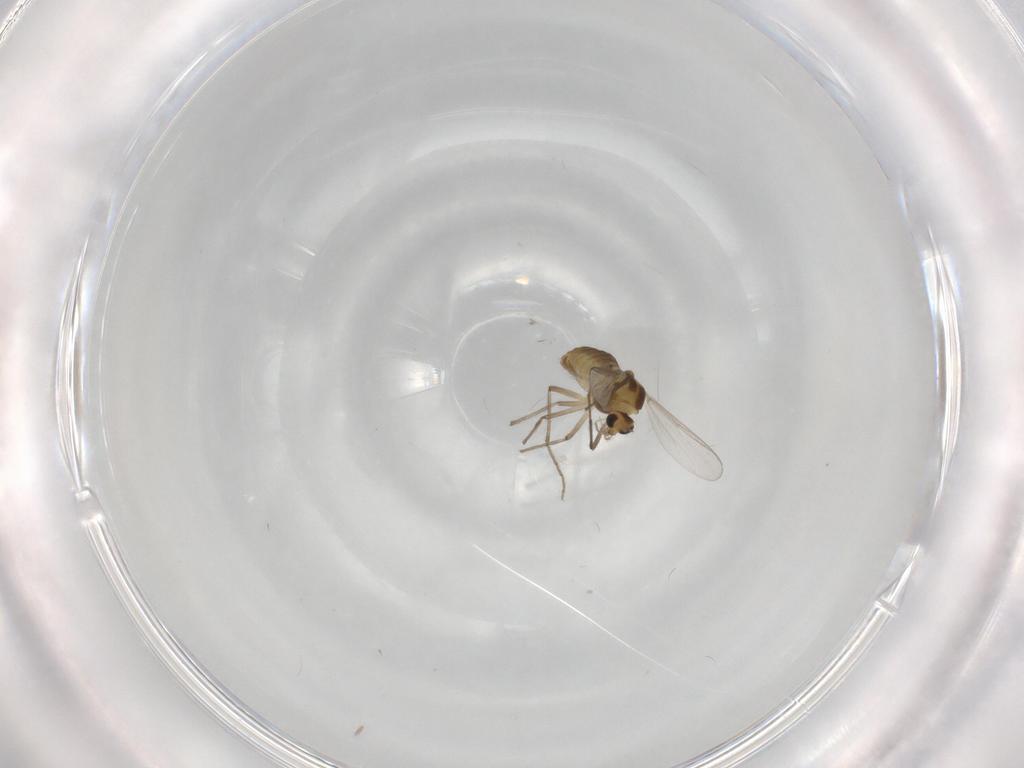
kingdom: Animalia
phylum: Arthropoda
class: Insecta
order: Diptera
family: Chironomidae
